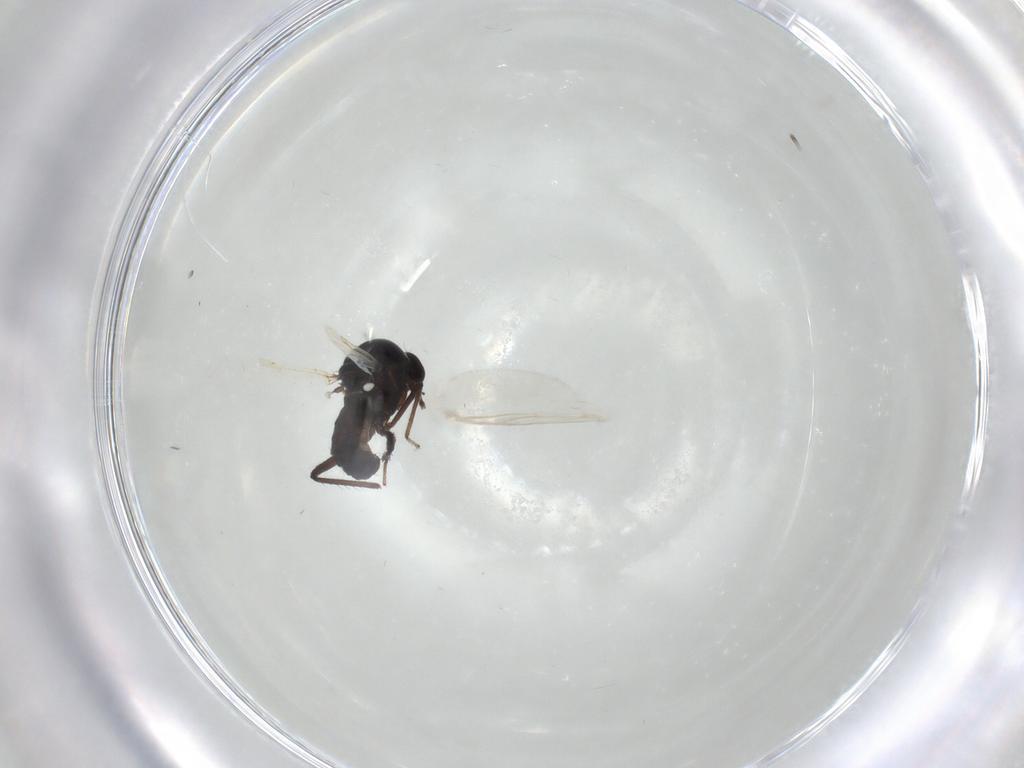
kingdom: Animalia
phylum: Arthropoda
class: Insecta
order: Diptera
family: Ceratopogonidae
